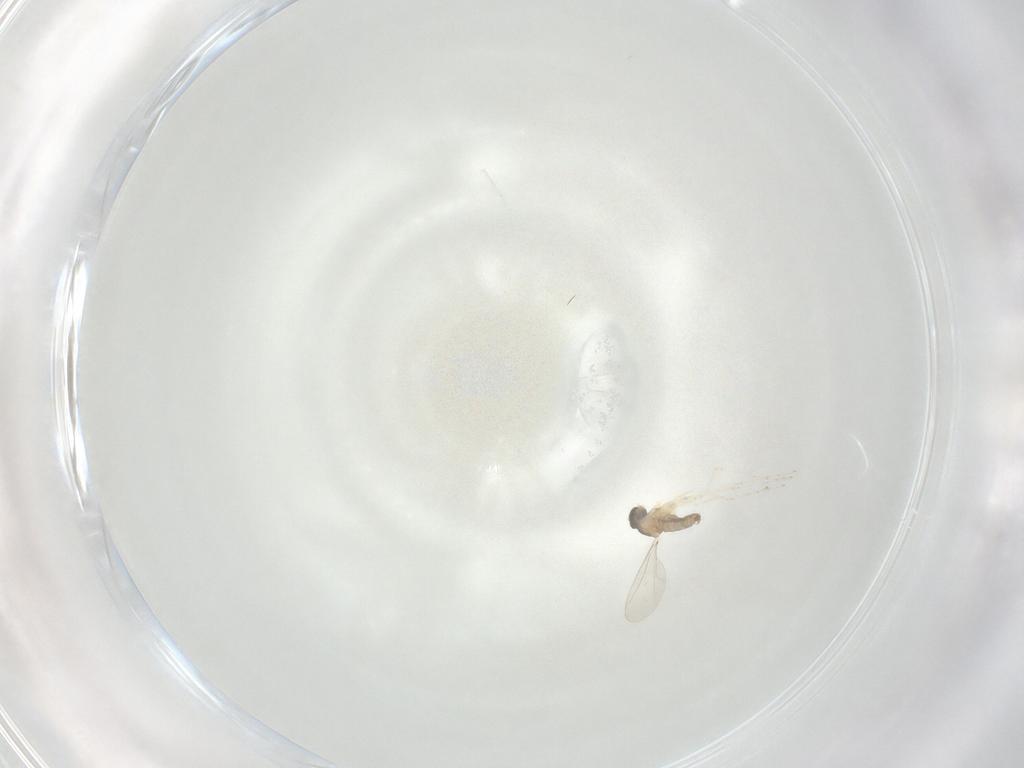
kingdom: Animalia
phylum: Arthropoda
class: Insecta
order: Diptera
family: Cecidomyiidae
